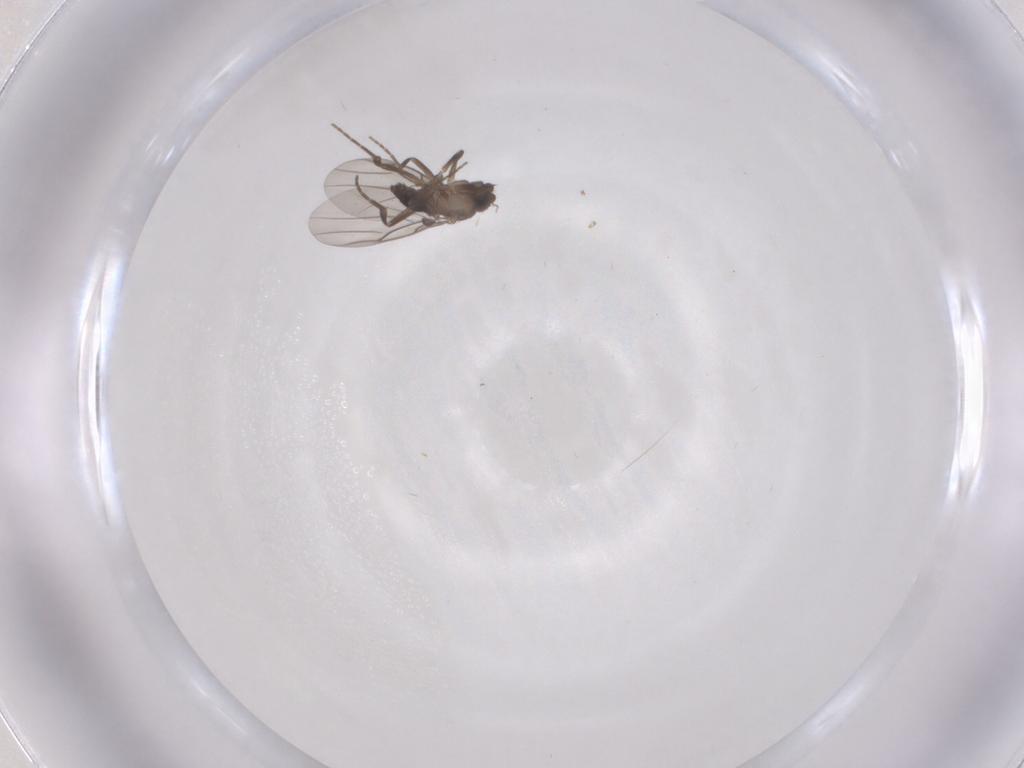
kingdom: Animalia
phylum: Arthropoda
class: Insecta
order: Diptera
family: Phoridae
